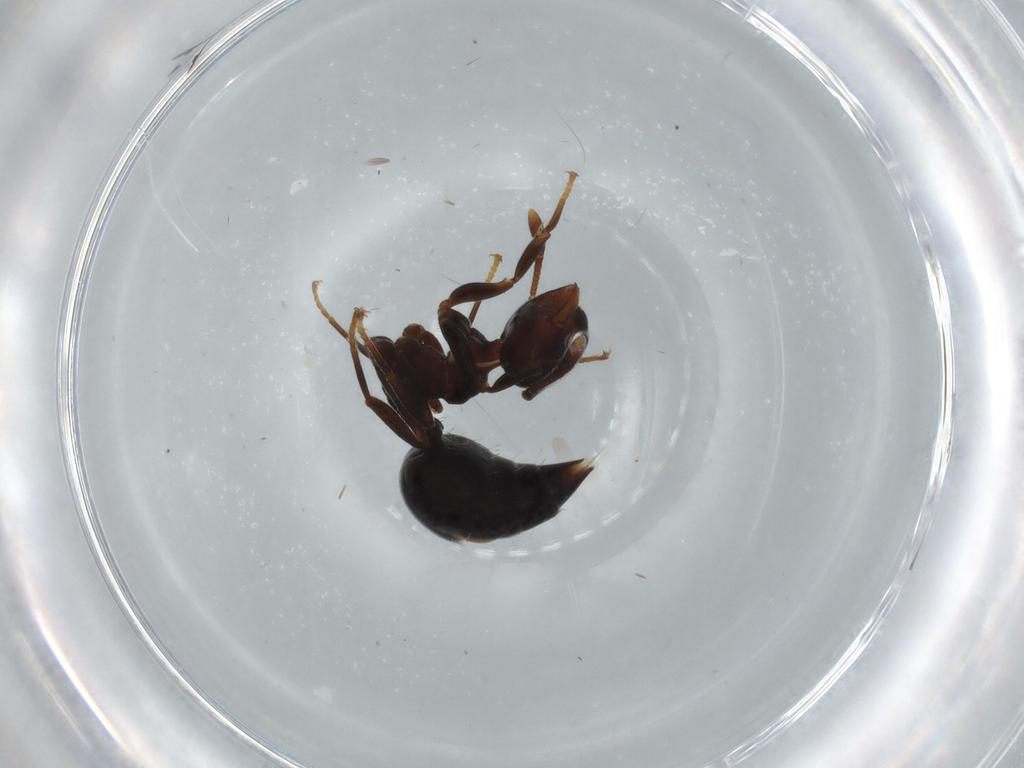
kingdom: Animalia
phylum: Arthropoda
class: Insecta
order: Hymenoptera
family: Formicidae
